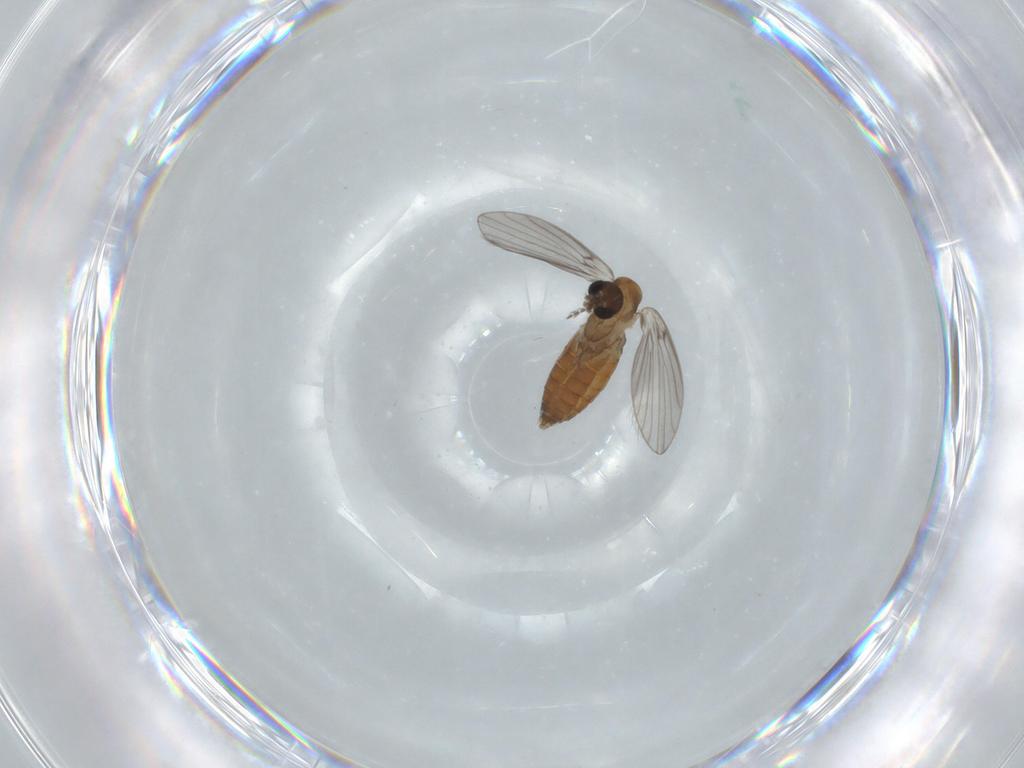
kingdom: Animalia
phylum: Arthropoda
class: Insecta
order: Diptera
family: Psychodidae
